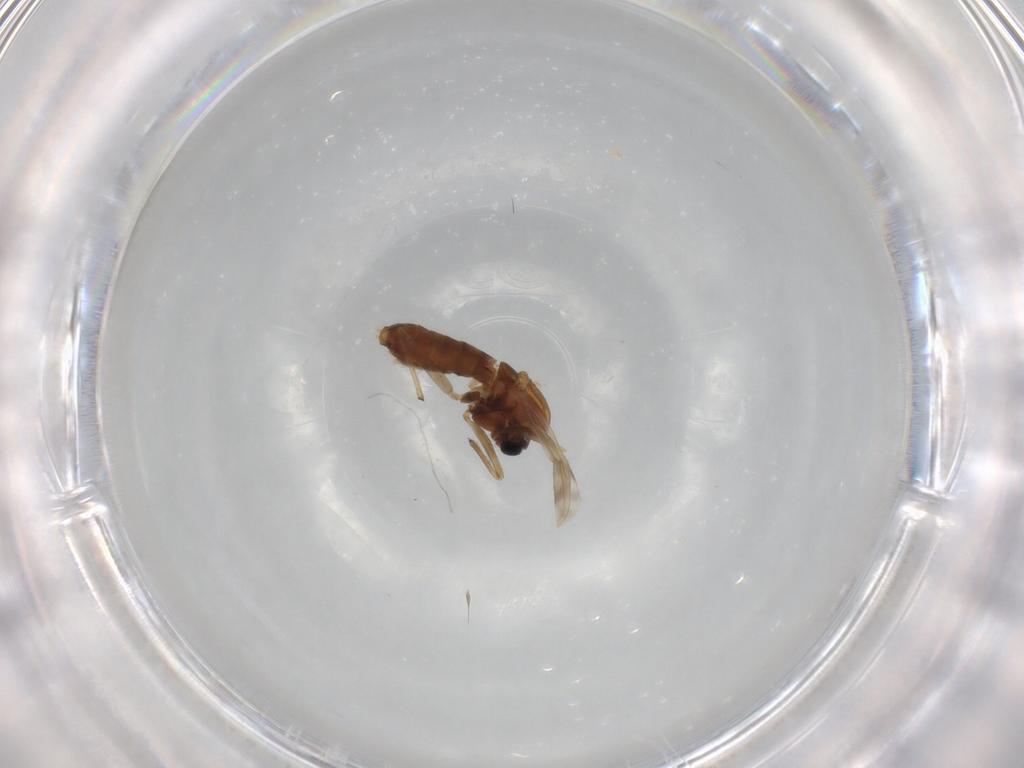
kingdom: Animalia
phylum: Arthropoda
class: Insecta
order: Diptera
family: Chironomidae
